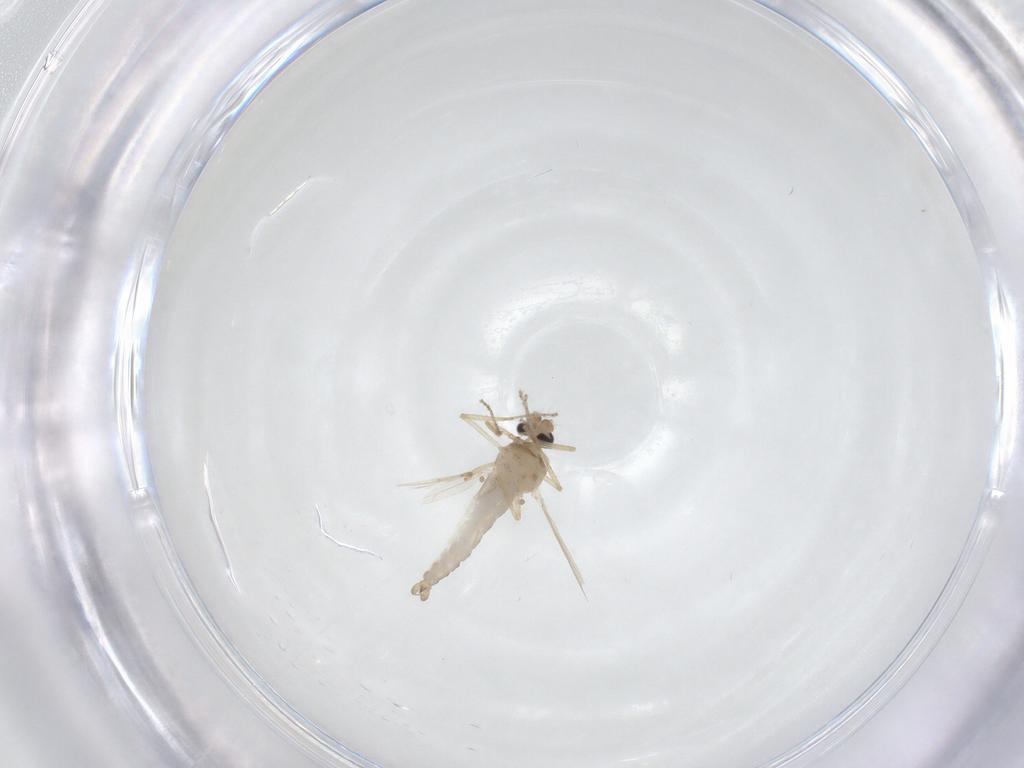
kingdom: Animalia
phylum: Arthropoda
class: Insecta
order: Diptera
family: Ceratopogonidae
